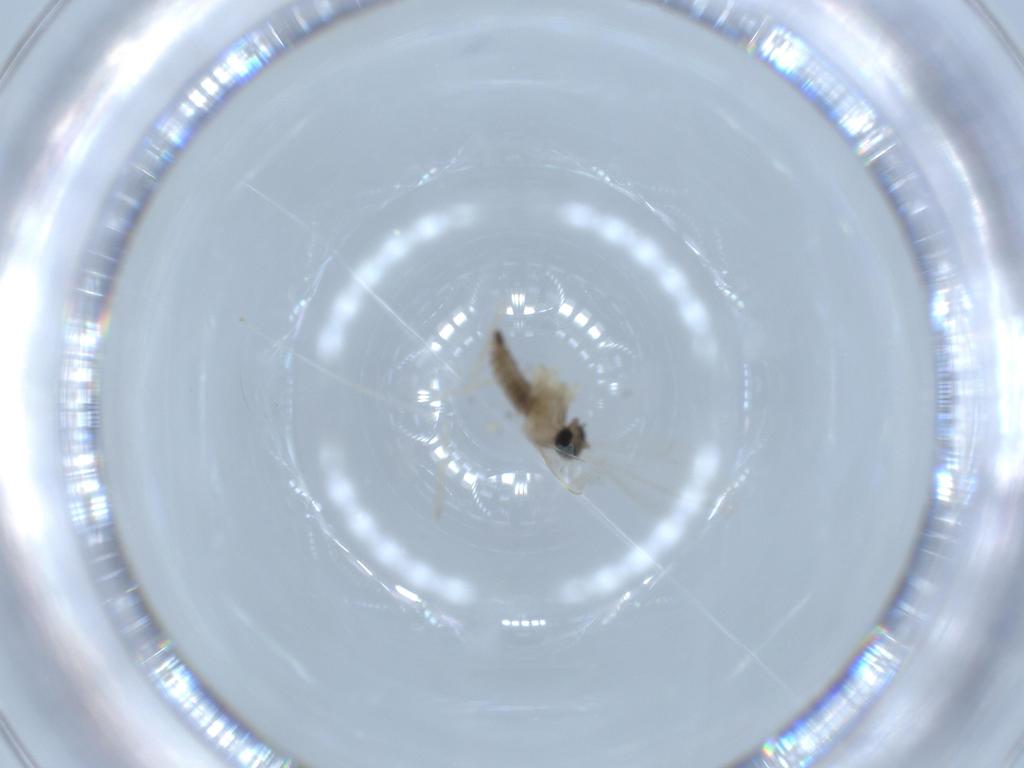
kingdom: Animalia
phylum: Arthropoda
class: Insecta
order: Diptera
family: Cecidomyiidae
